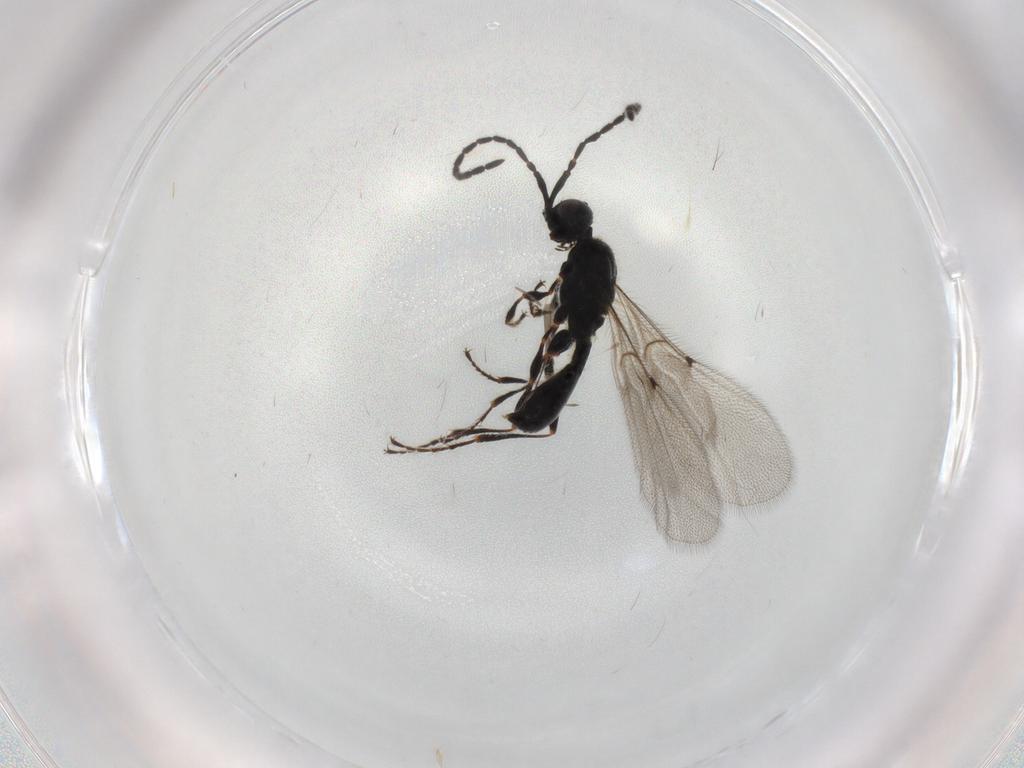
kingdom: Animalia
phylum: Arthropoda
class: Insecta
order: Hymenoptera
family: Diapriidae
